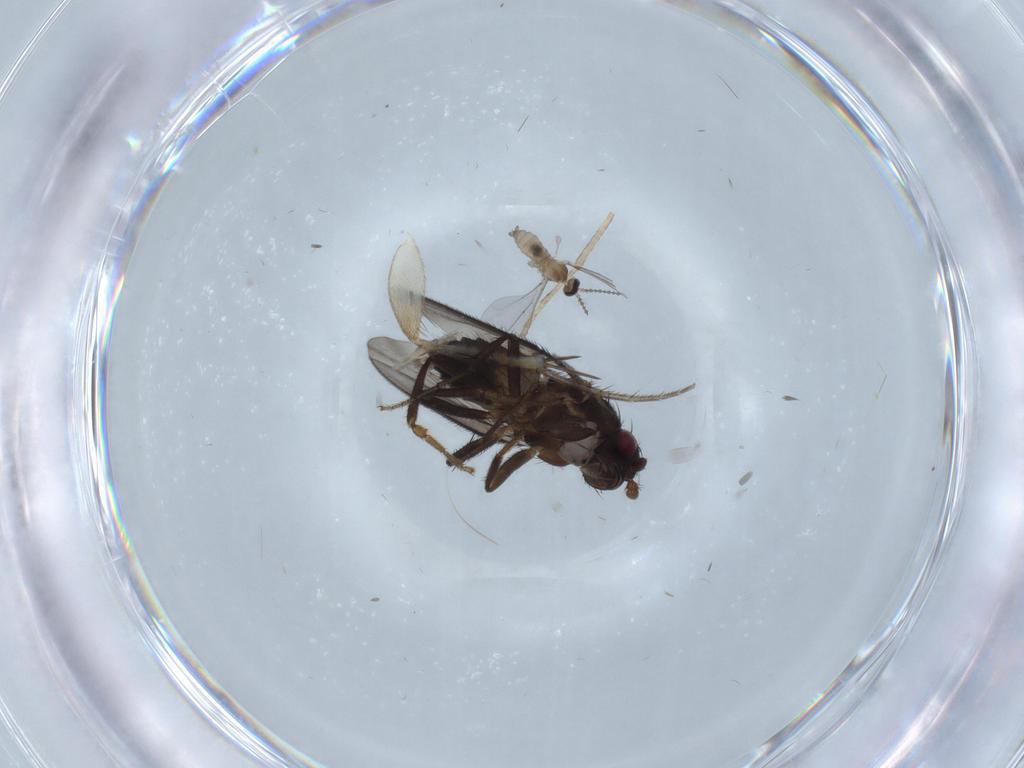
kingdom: Animalia
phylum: Arthropoda
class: Insecta
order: Diptera
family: Sphaeroceridae
